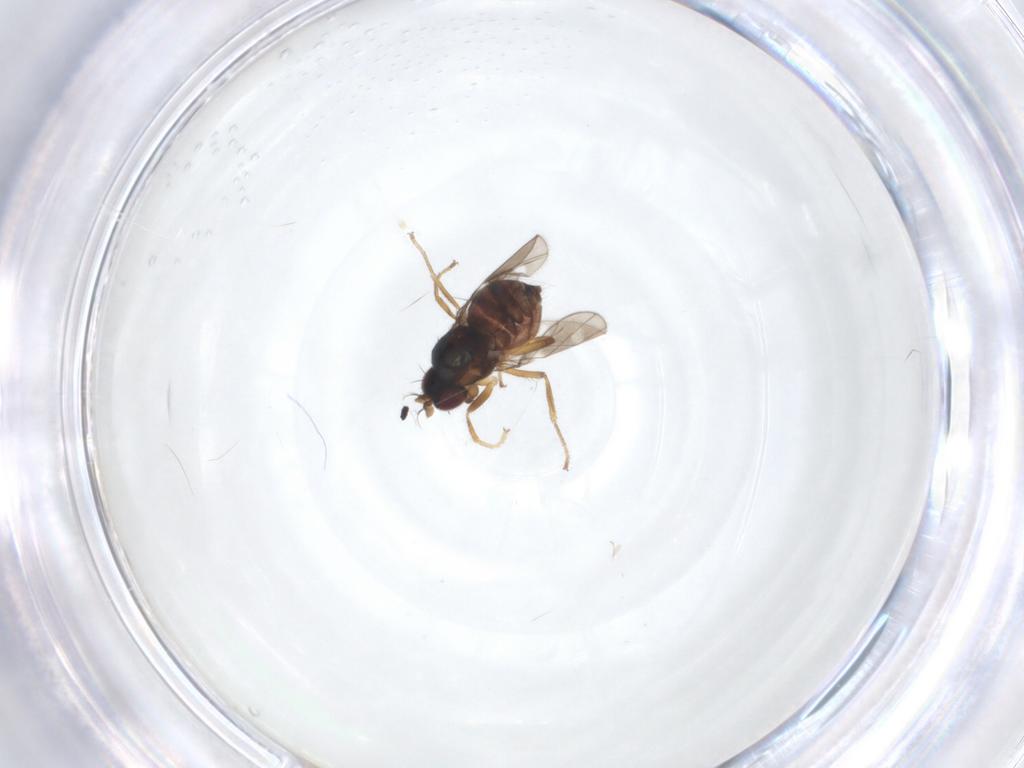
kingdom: Animalia
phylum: Arthropoda
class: Insecta
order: Diptera
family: Ephydridae
